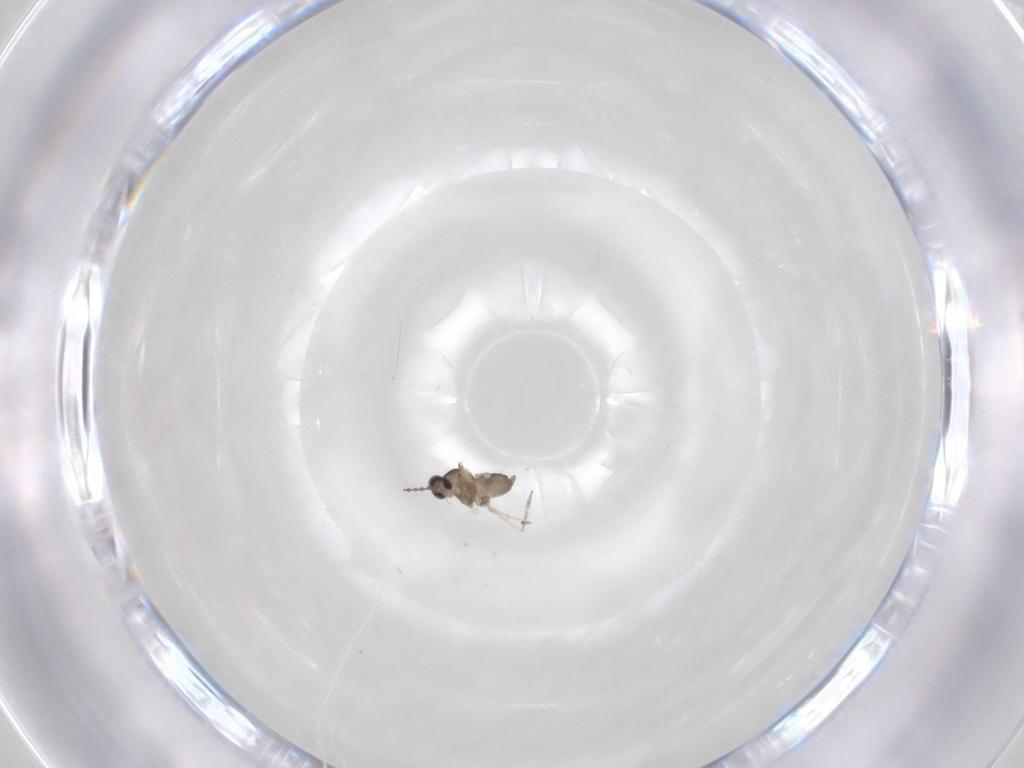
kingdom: Animalia
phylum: Arthropoda
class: Insecta
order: Diptera
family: Cecidomyiidae
